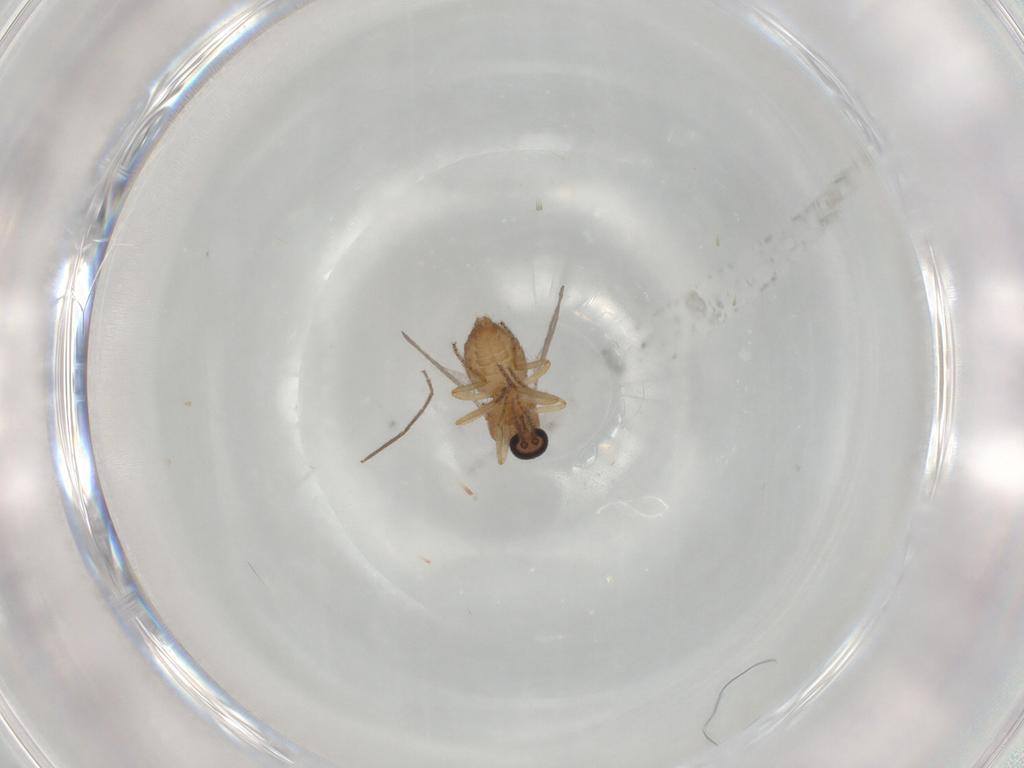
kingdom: Animalia
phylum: Arthropoda
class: Insecta
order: Diptera
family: Ceratopogonidae
